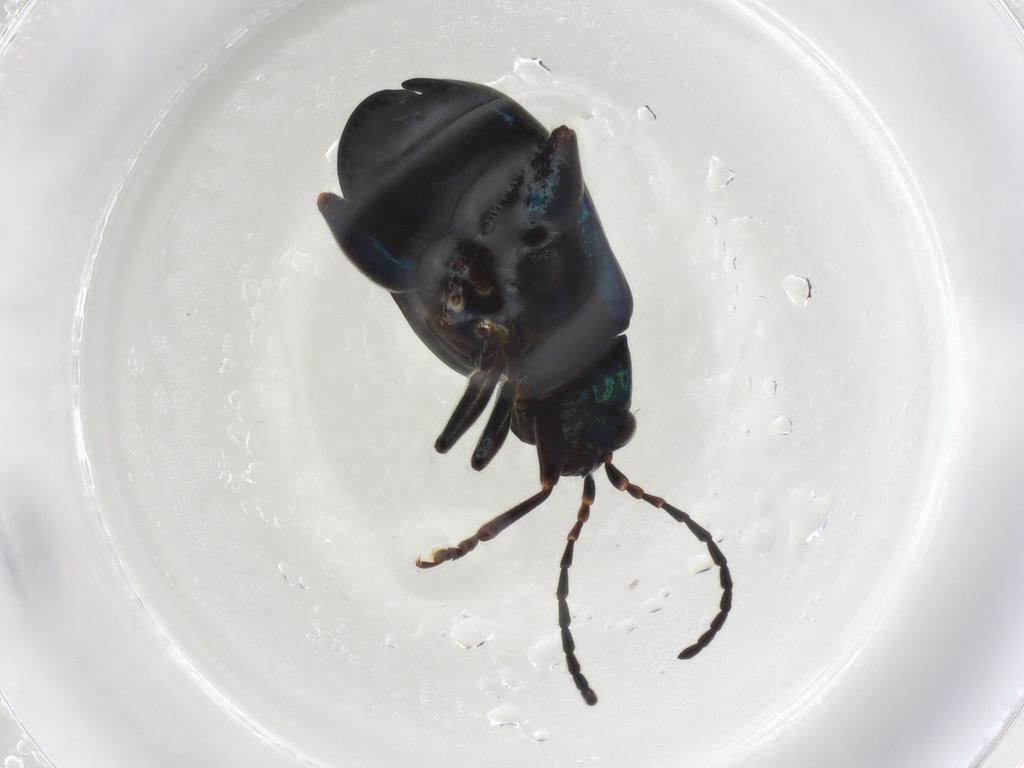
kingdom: Animalia
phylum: Arthropoda
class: Insecta
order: Coleoptera
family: Chrysomelidae
